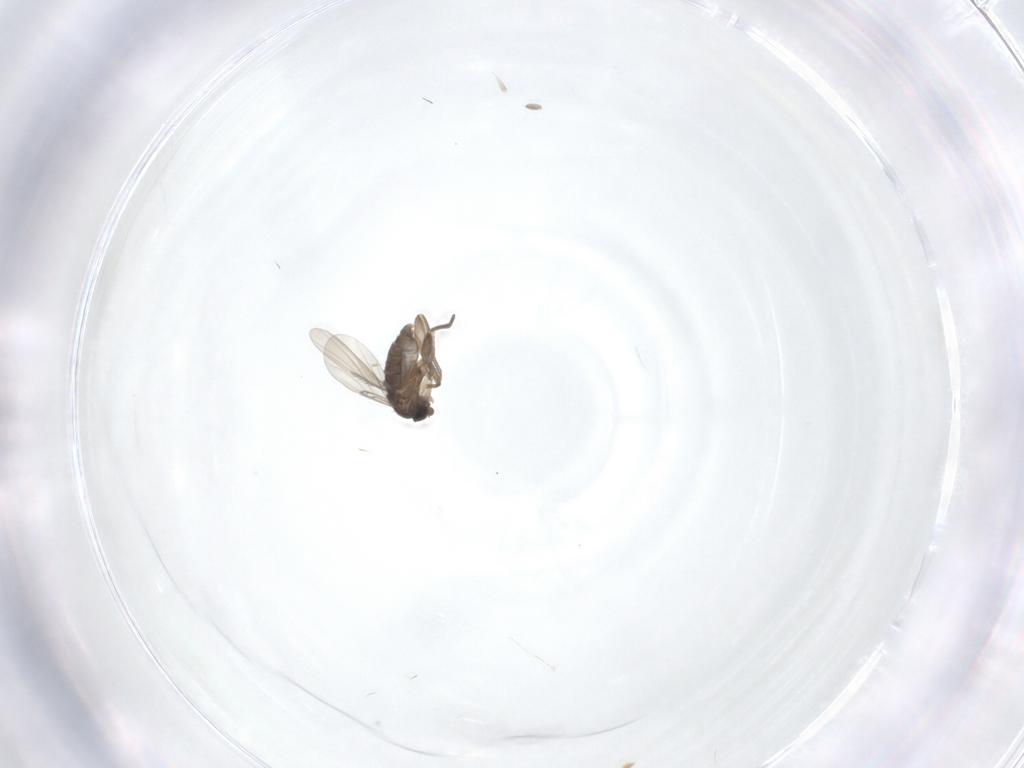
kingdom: Animalia
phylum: Arthropoda
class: Insecta
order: Diptera
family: Phoridae
